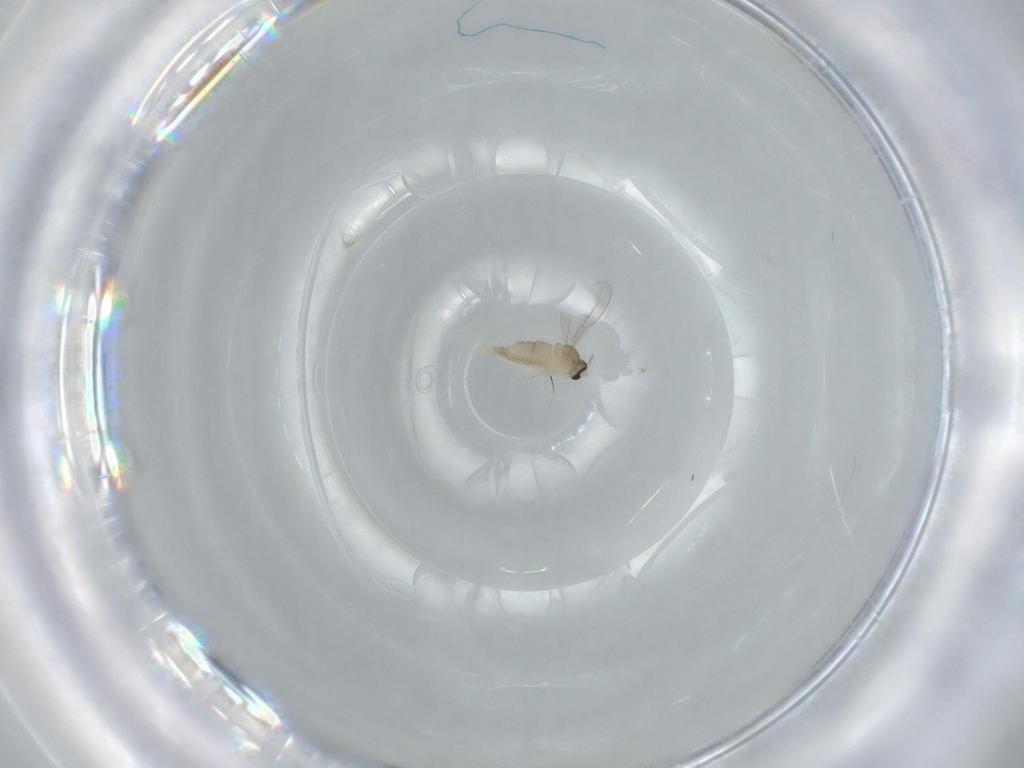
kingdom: Animalia
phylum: Arthropoda
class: Insecta
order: Diptera
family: Cecidomyiidae
